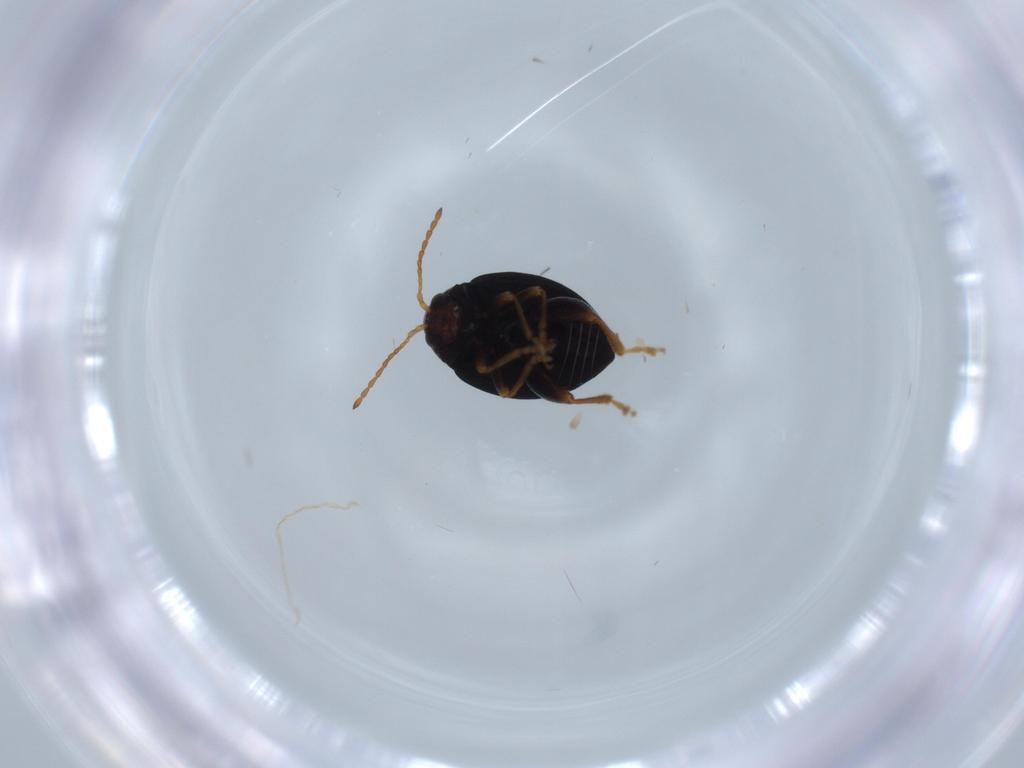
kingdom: Animalia
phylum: Arthropoda
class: Insecta
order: Coleoptera
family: Chrysomelidae
